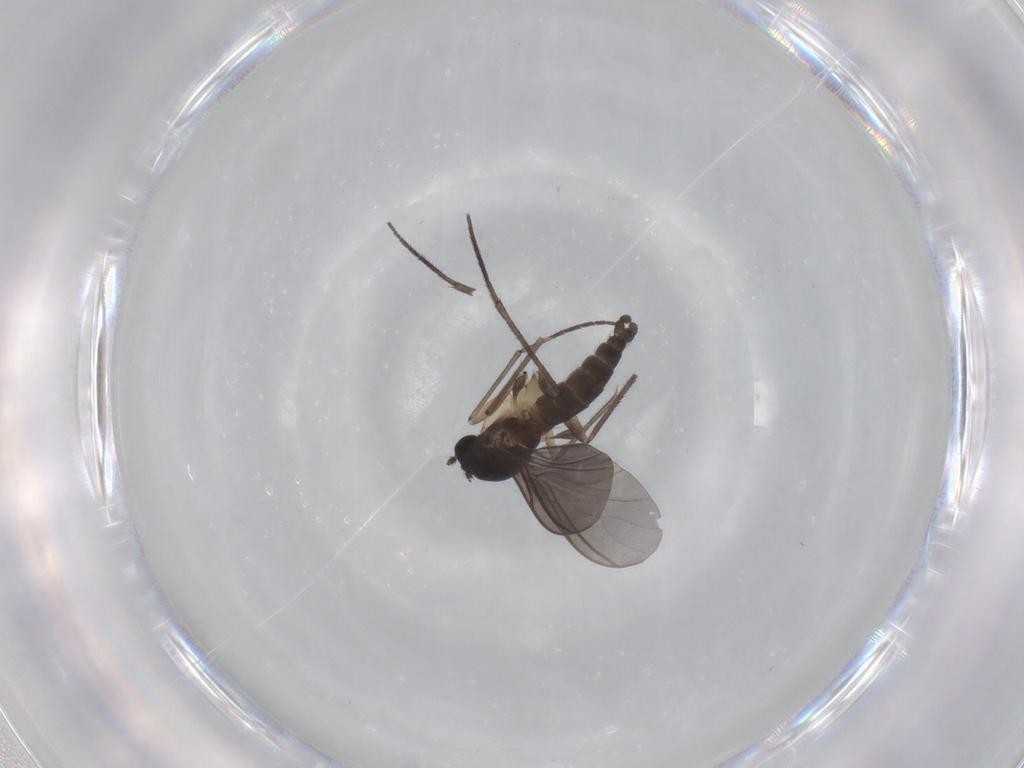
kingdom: Animalia
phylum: Arthropoda
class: Insecta
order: Diptera
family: Sciaridae
